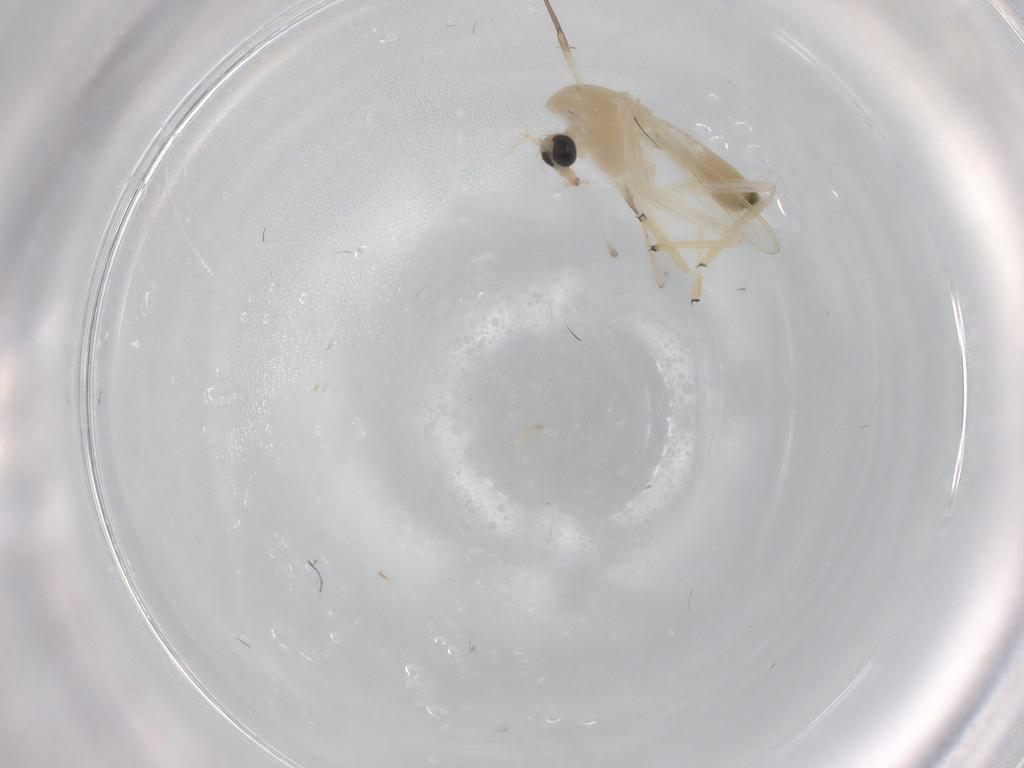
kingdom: Animalia
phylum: Arthropoda
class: Insecta
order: Diptera
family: Chironomidae
